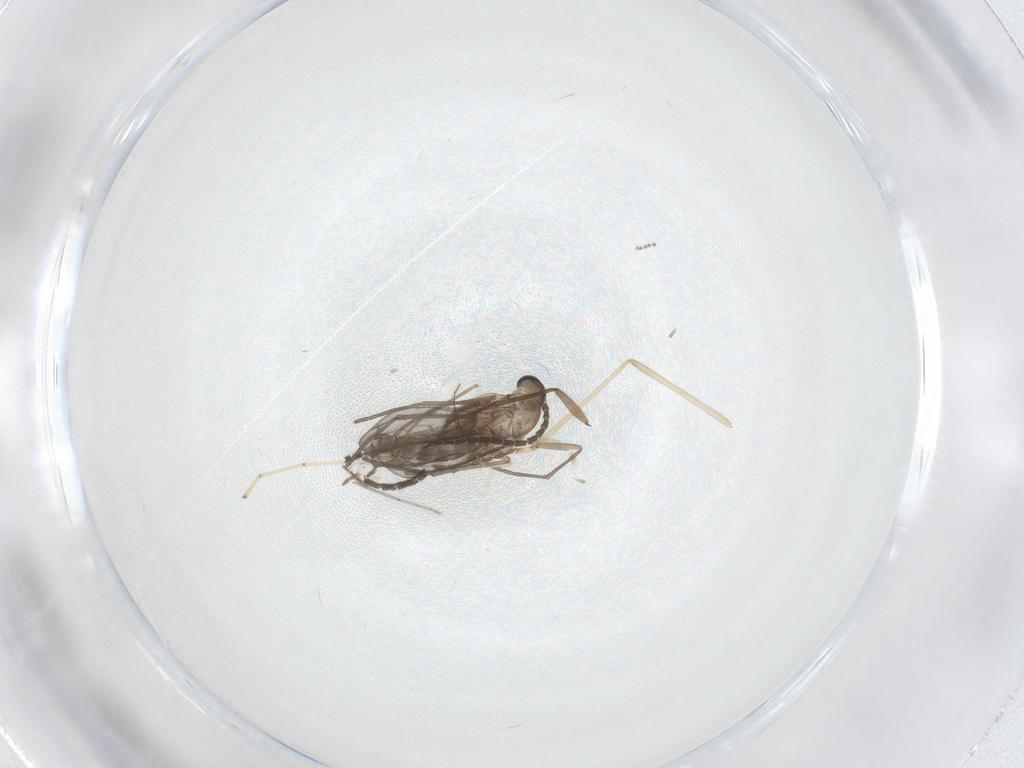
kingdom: Animalia
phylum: Arthropoda
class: Insecta
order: Diptera
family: Sciaridae
